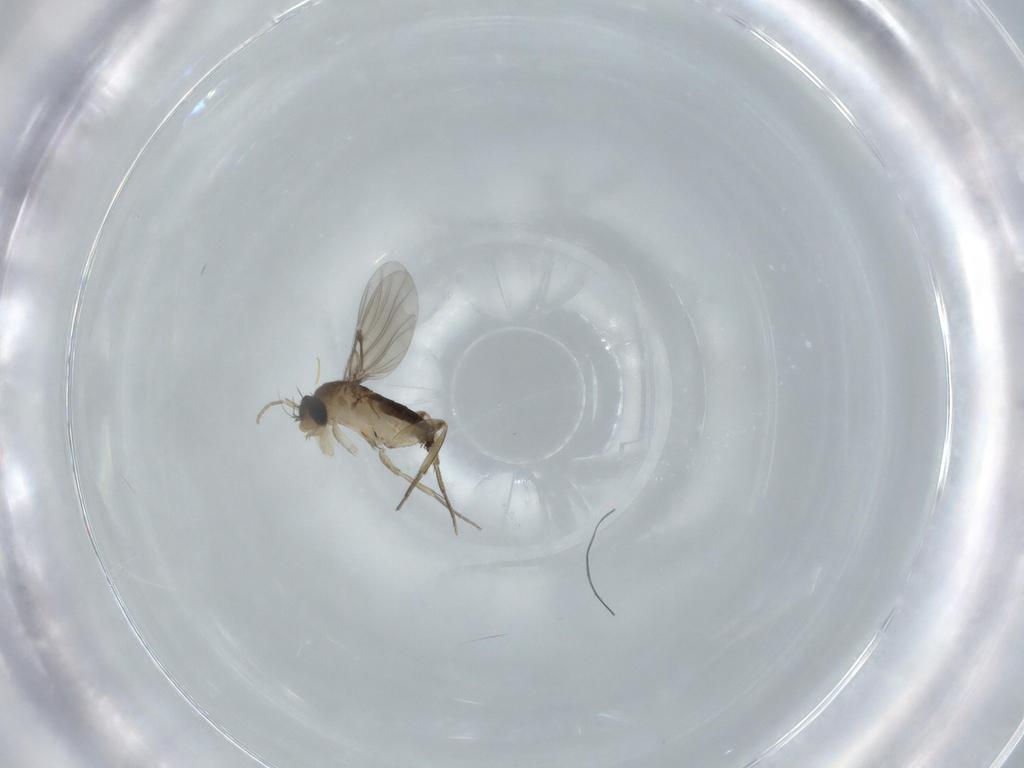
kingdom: Animalia
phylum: Arthropoda
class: Insecta
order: Diptera
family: Phoridae
